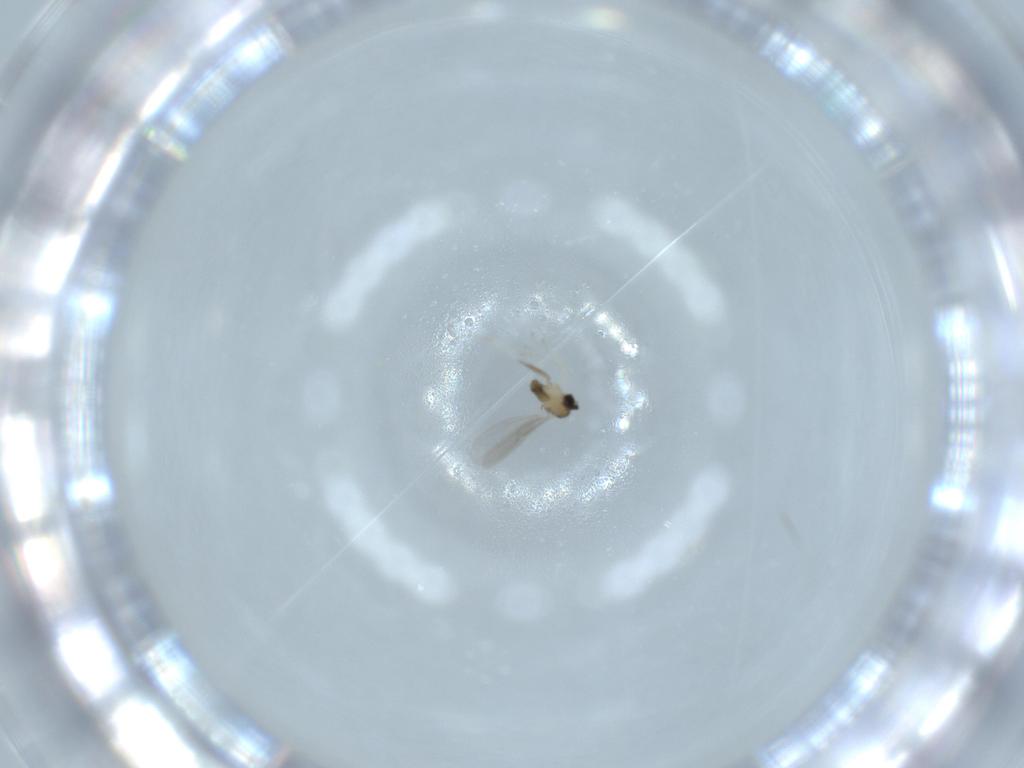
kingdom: Animalia
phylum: Arthropoda
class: Insecta
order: Diptera
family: Cecidomyiidae
